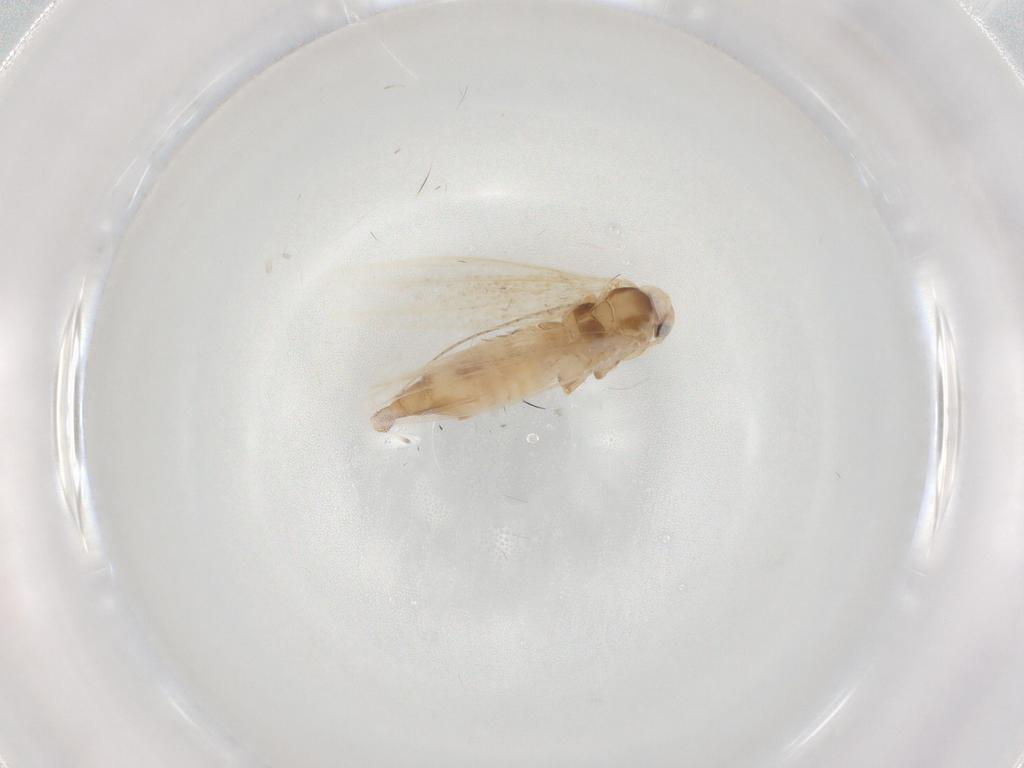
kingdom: Animalia
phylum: Arthropoda
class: Insecta
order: Lepidoptera
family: Bucculatricidae
